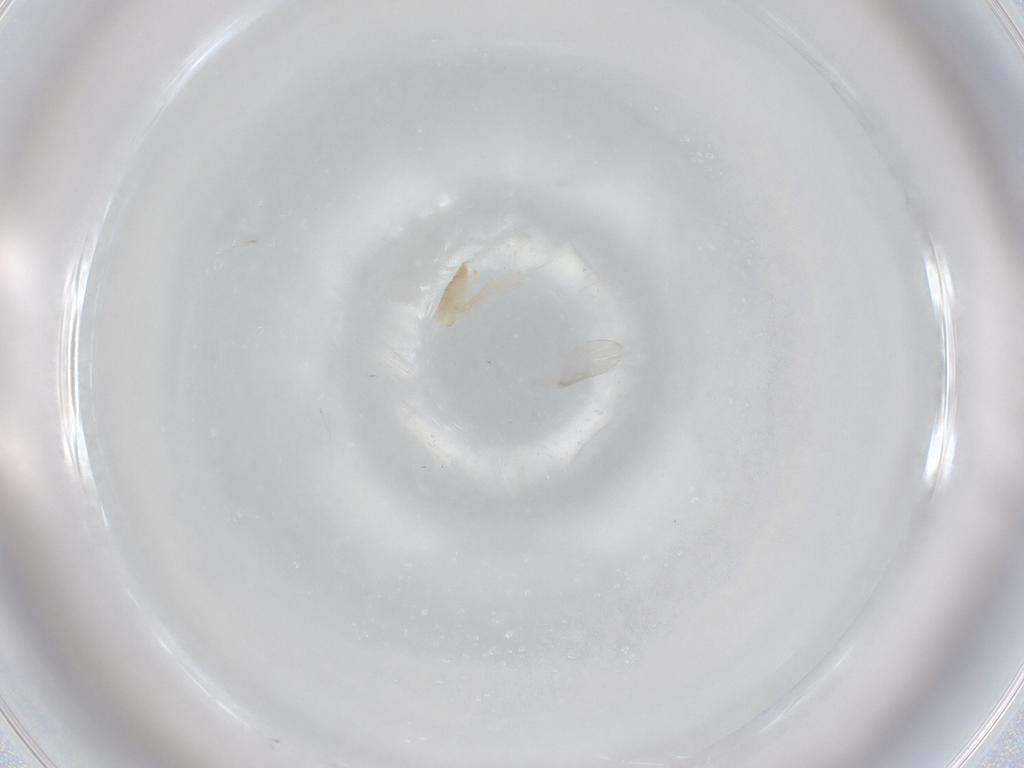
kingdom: Animalia
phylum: Arthropoda
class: Insecta
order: Diptera
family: Cecidomyiidae
